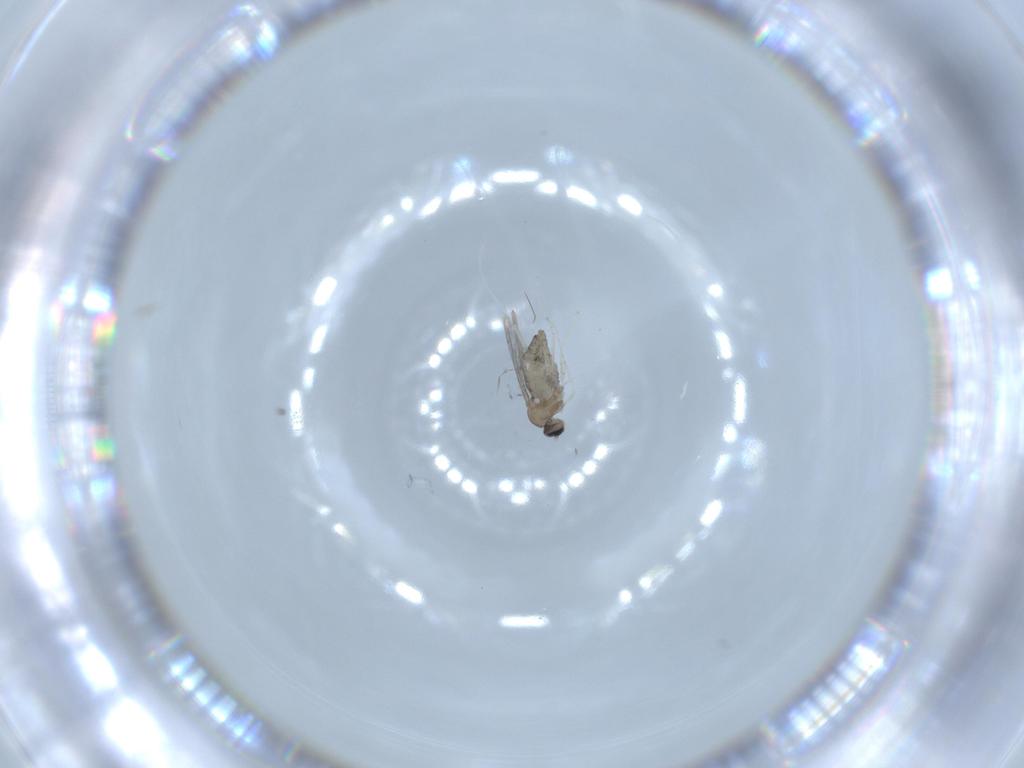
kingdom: Animalia
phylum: Arthropoda
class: Insecta
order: Diptera
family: Cecidomyiidae
